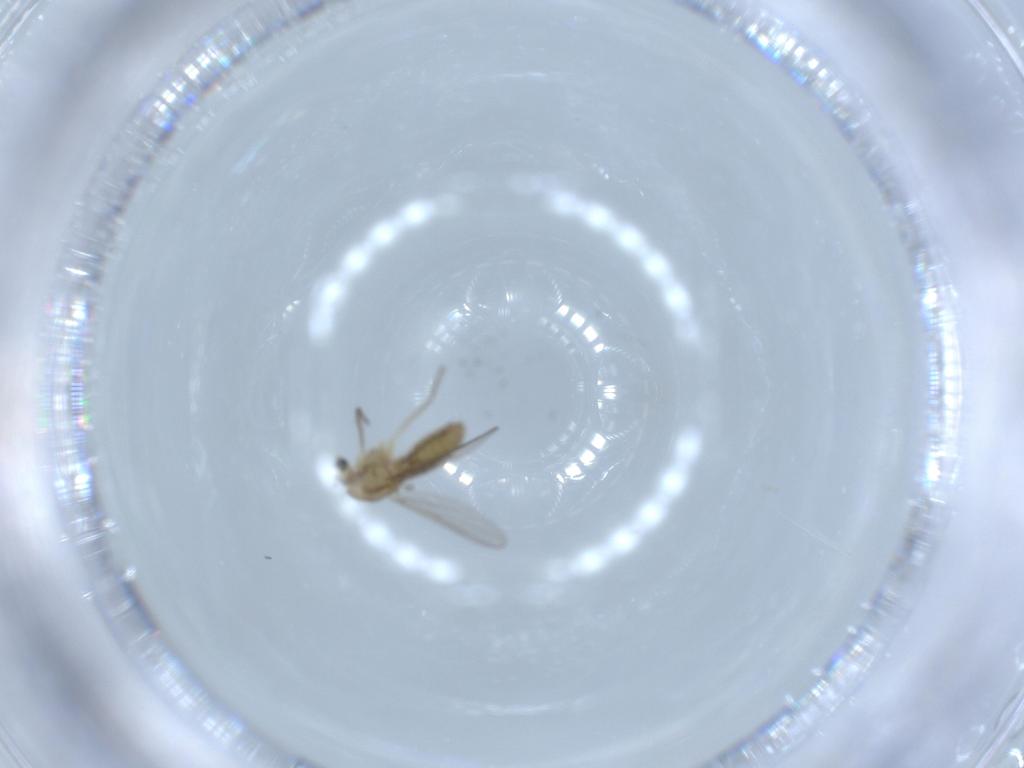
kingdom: Animalia
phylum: Arthropoda
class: Insecta
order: Diptera
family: Chironomidae
